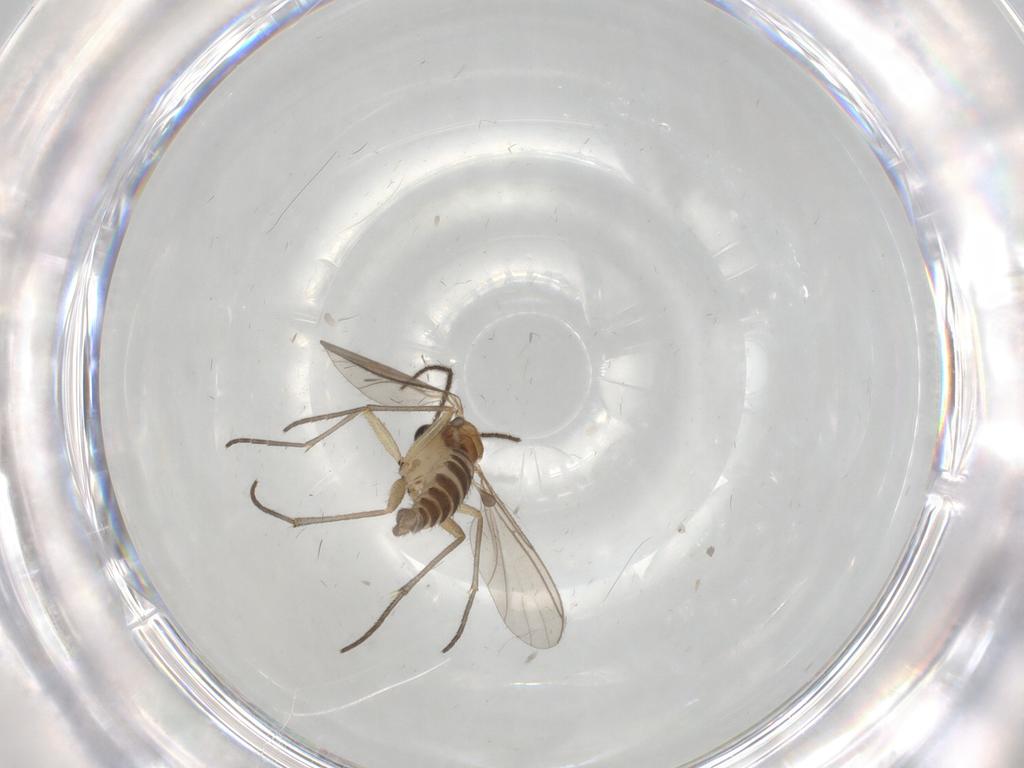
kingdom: Animalia
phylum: Arthropoda
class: Insecta
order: Diptera
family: Sciaridae
